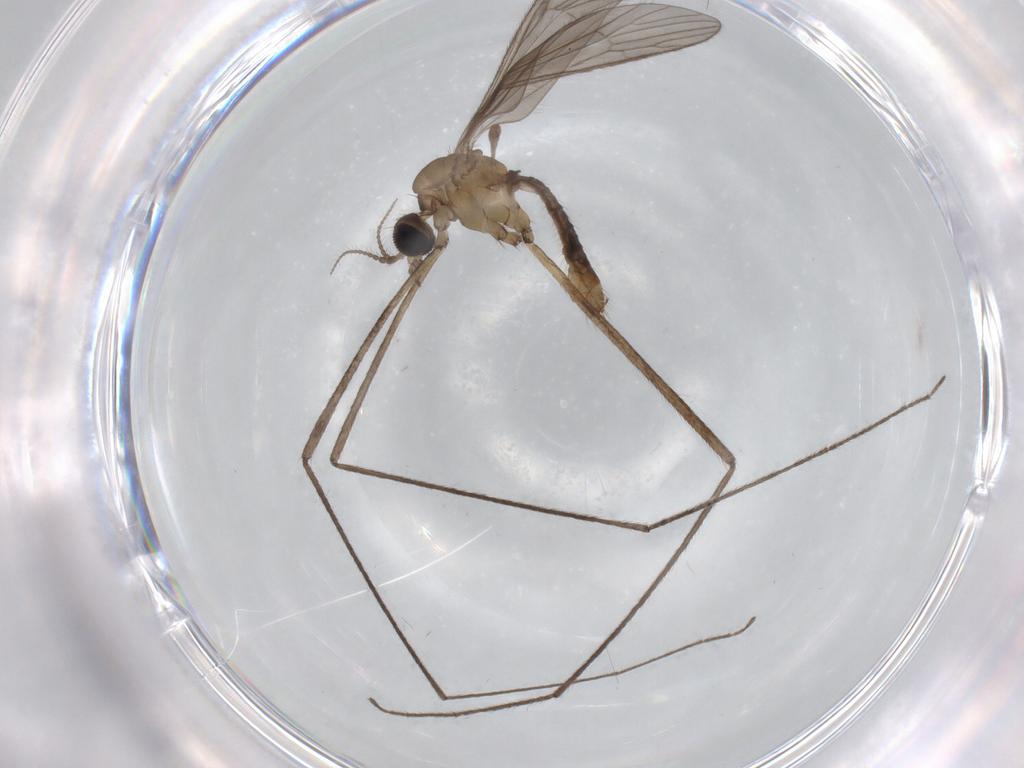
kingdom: Animalia
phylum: Arthropoda
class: Insecta
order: Diptera
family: Limoniidae
